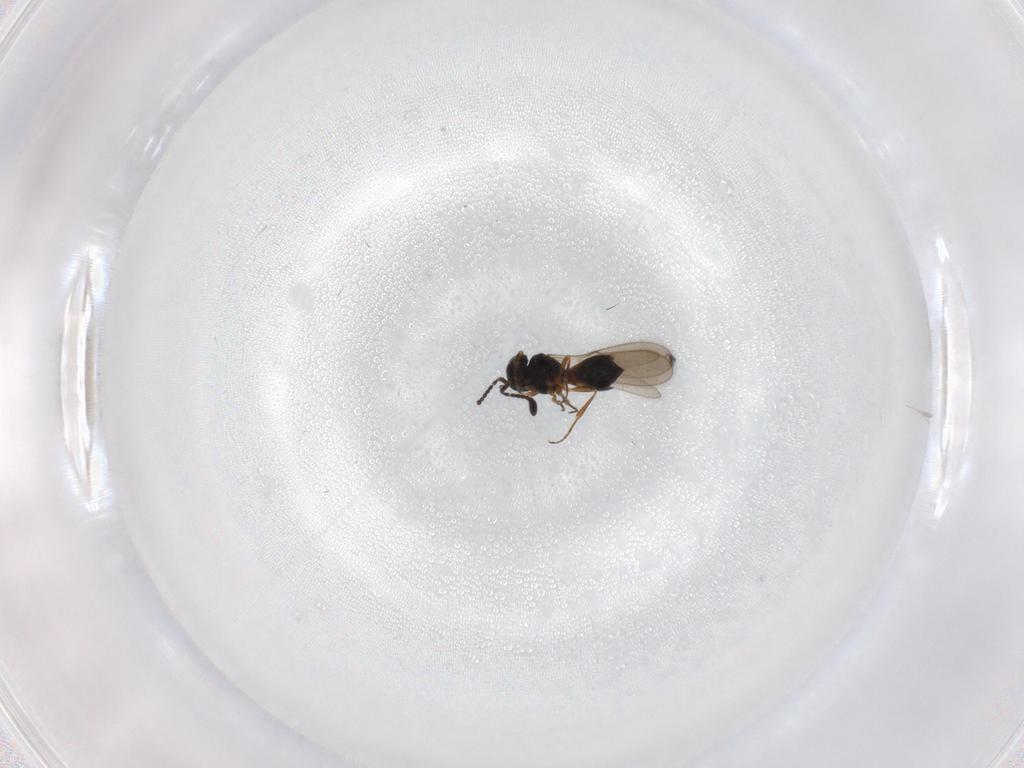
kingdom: Animalia
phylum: Arthropoda
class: Insecta
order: Hymenoptera
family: Scelionidae
